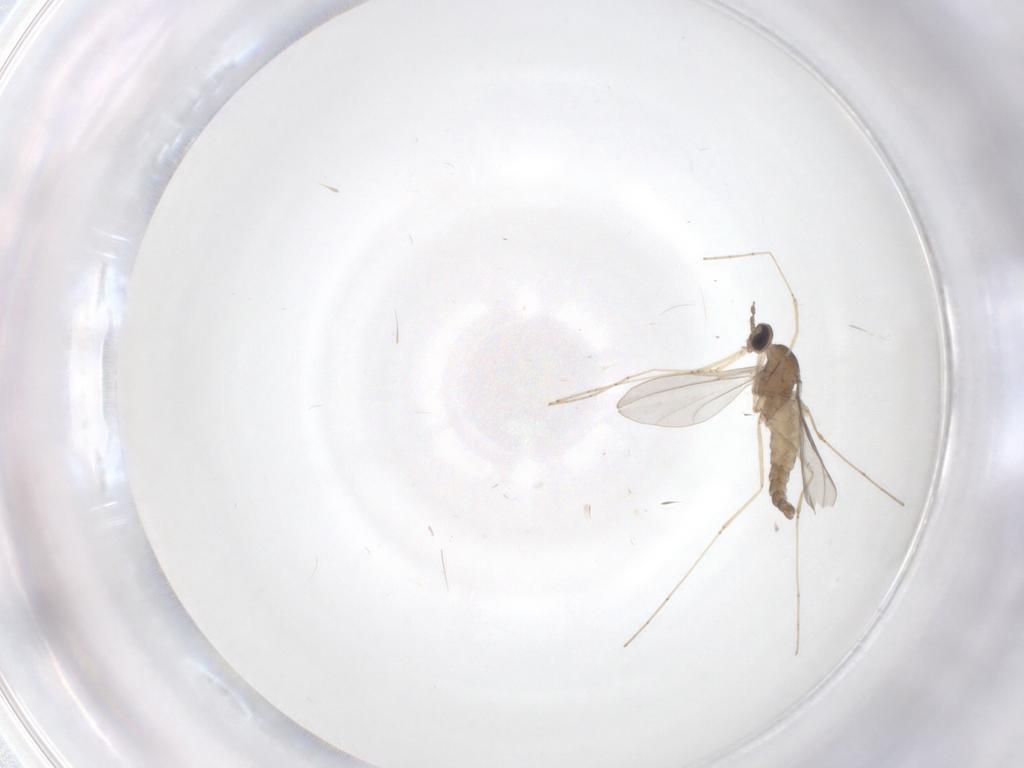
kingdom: Animalia
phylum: Arthropoda
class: Insecta
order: Diptera
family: Cecidomyiidae
